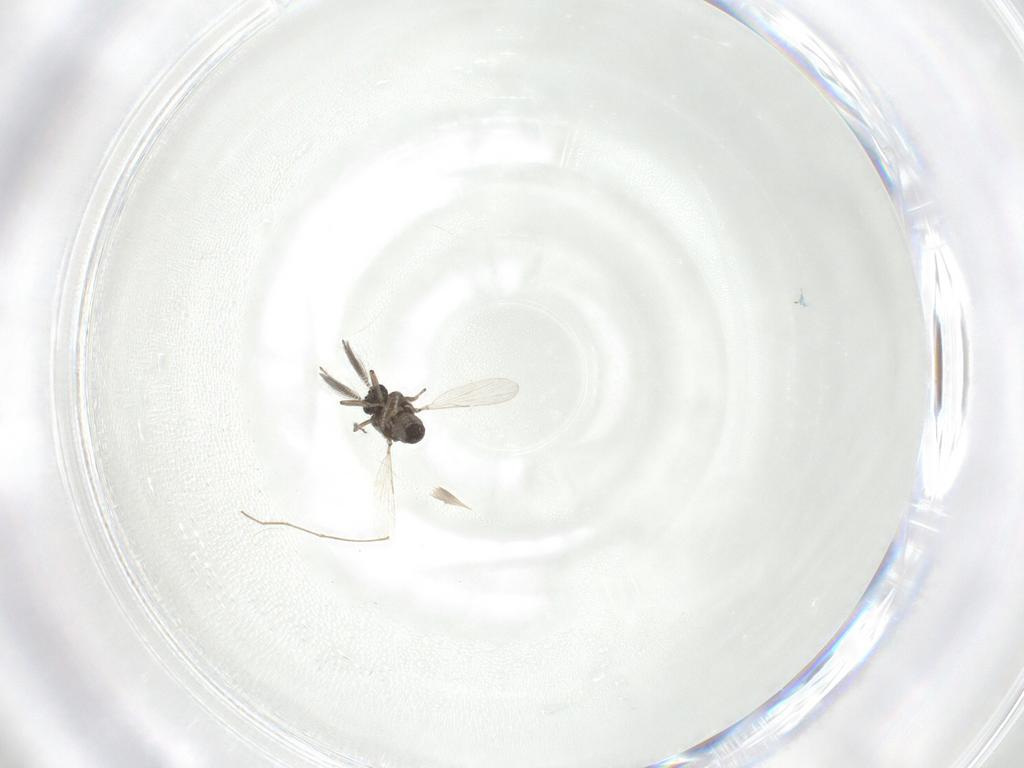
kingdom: Animalia
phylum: Arthropoda
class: Insecta
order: Diptera
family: Ceratopogonidae
